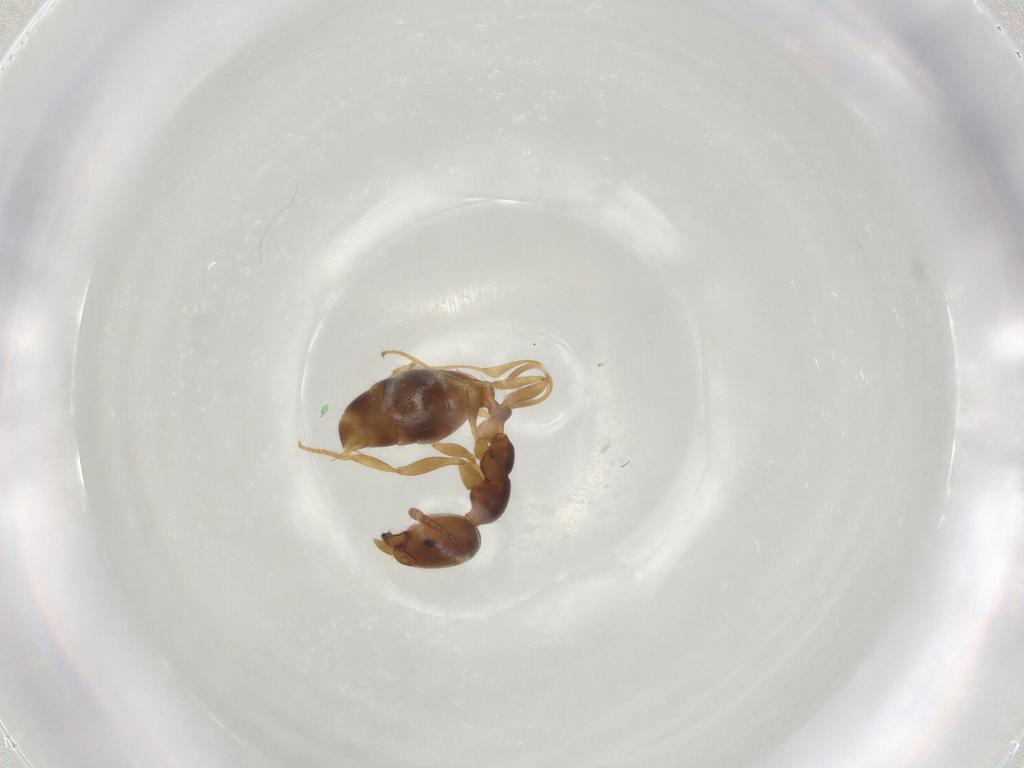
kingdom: Animalia
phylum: Arthropoda
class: Insecta
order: Hymenoptera
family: Formicidae
